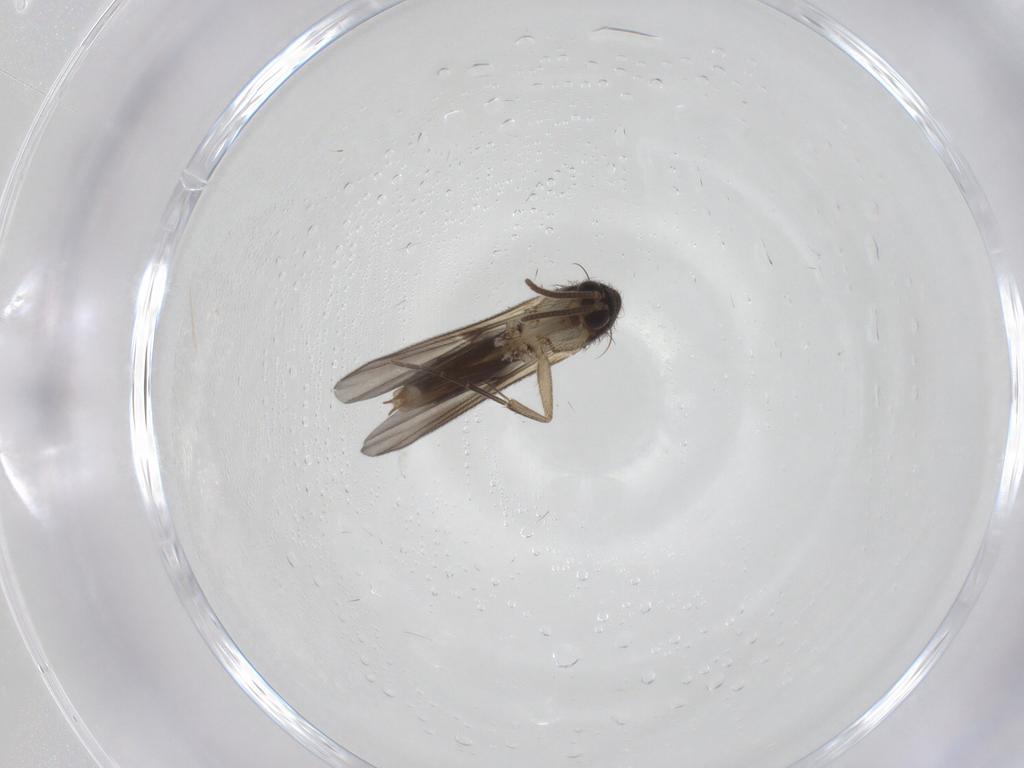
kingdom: Animalia
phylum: Arthropoda
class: Insecta
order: Diptera
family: Mycetophilidae
